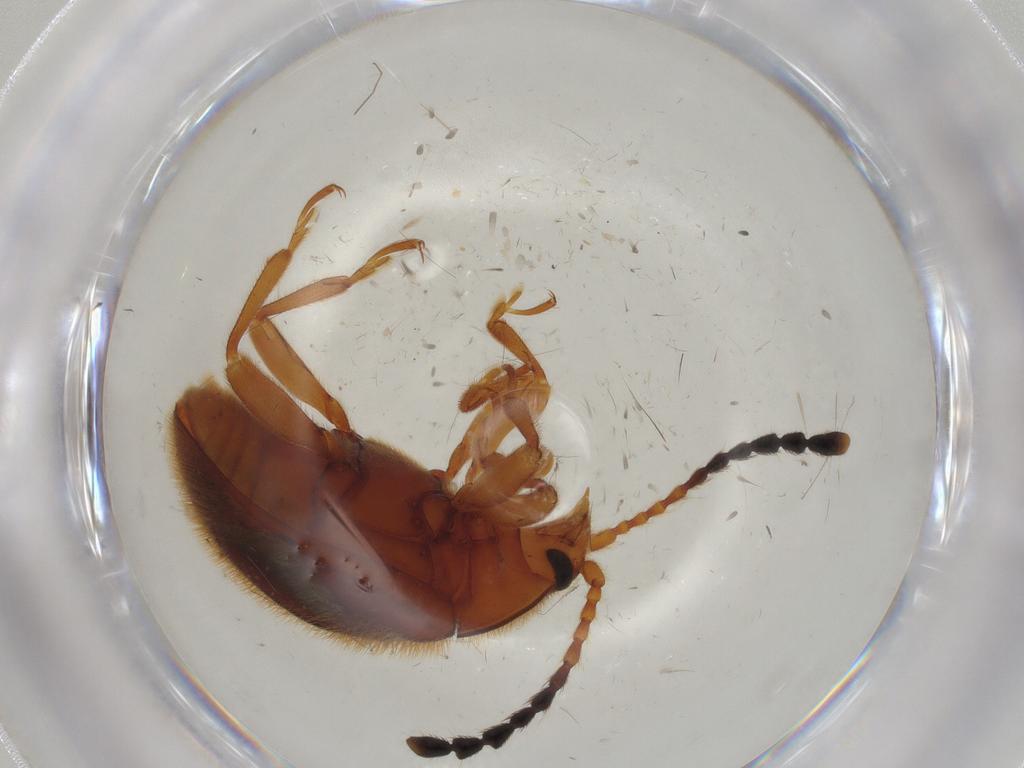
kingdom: Animalia
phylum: Arthropoda
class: Insecta
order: Coleoptera
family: Endomychidae
